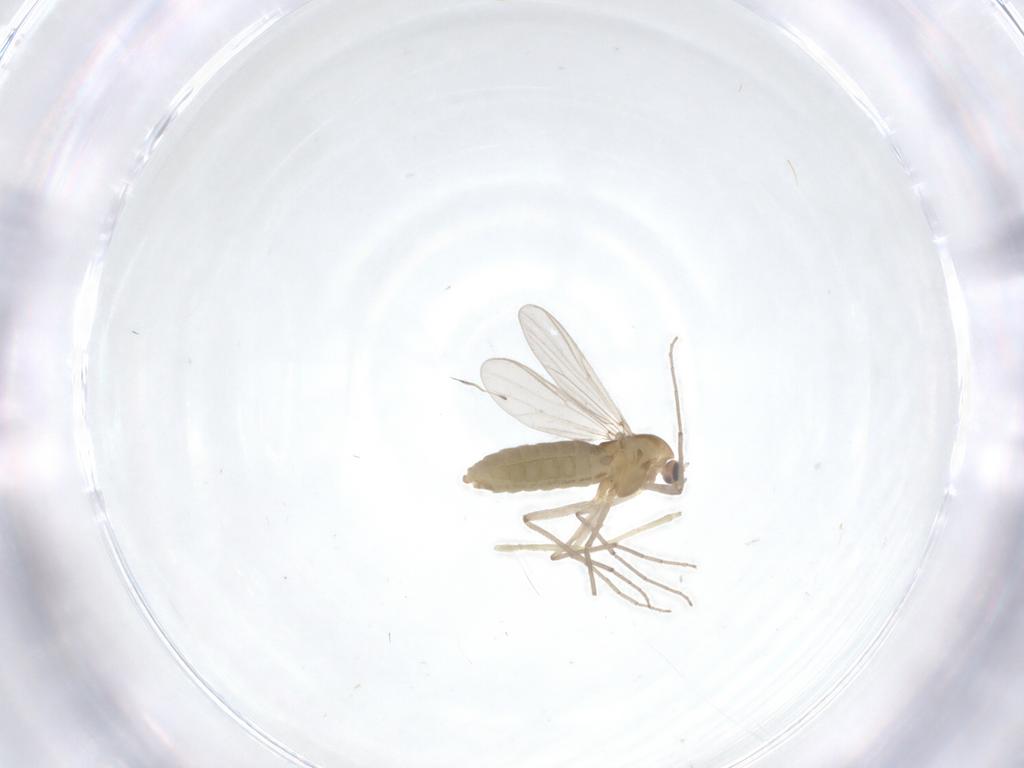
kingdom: Animalia
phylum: Arthropoda
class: Insecta
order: Diptera
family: Chironomidae
